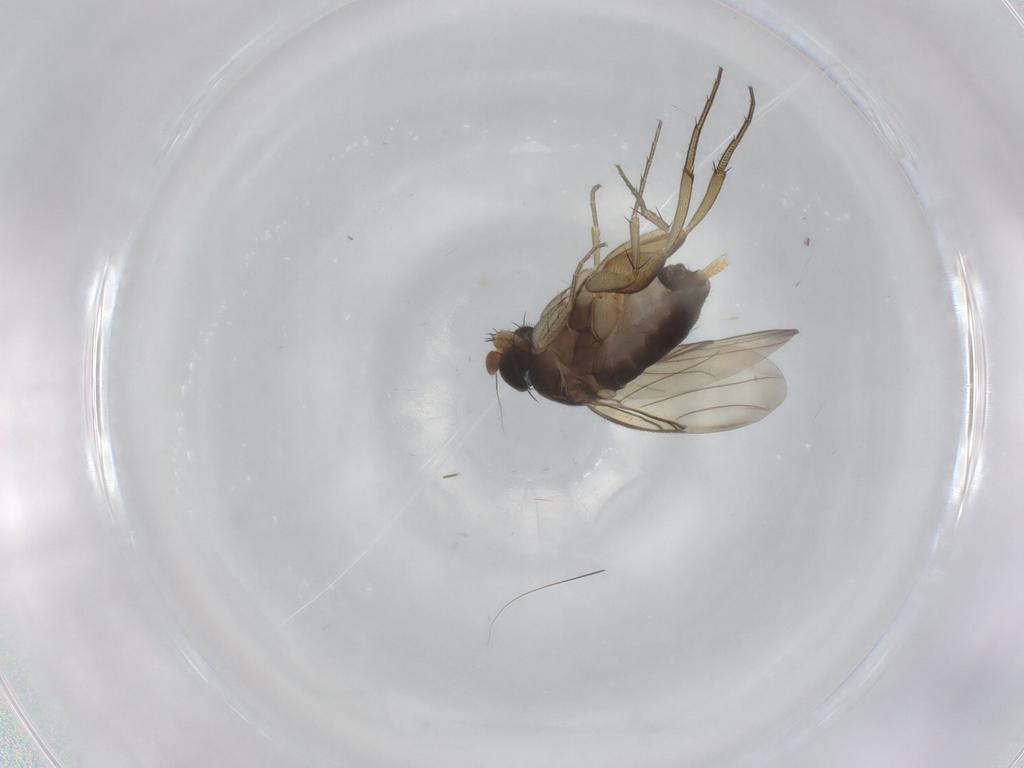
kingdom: Animalia
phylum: Arthropoda
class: Insecta
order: Diptera
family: Phoridae
